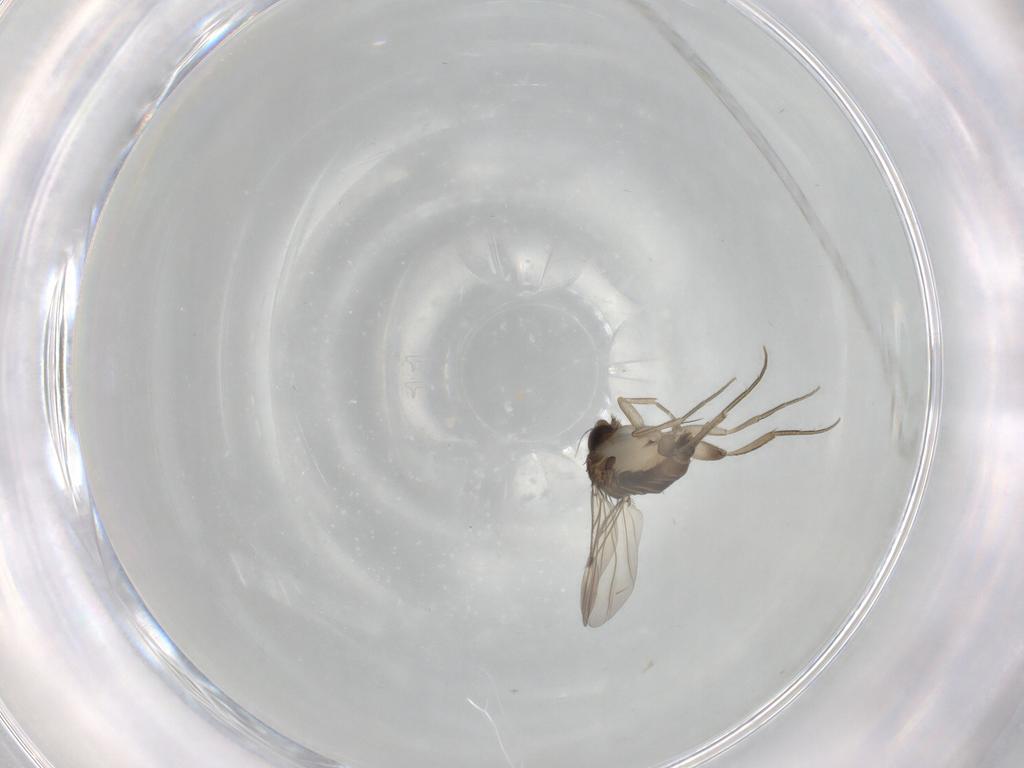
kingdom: Animalia
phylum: Arthropoda
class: Insecta
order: Diptera
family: Phoridae
